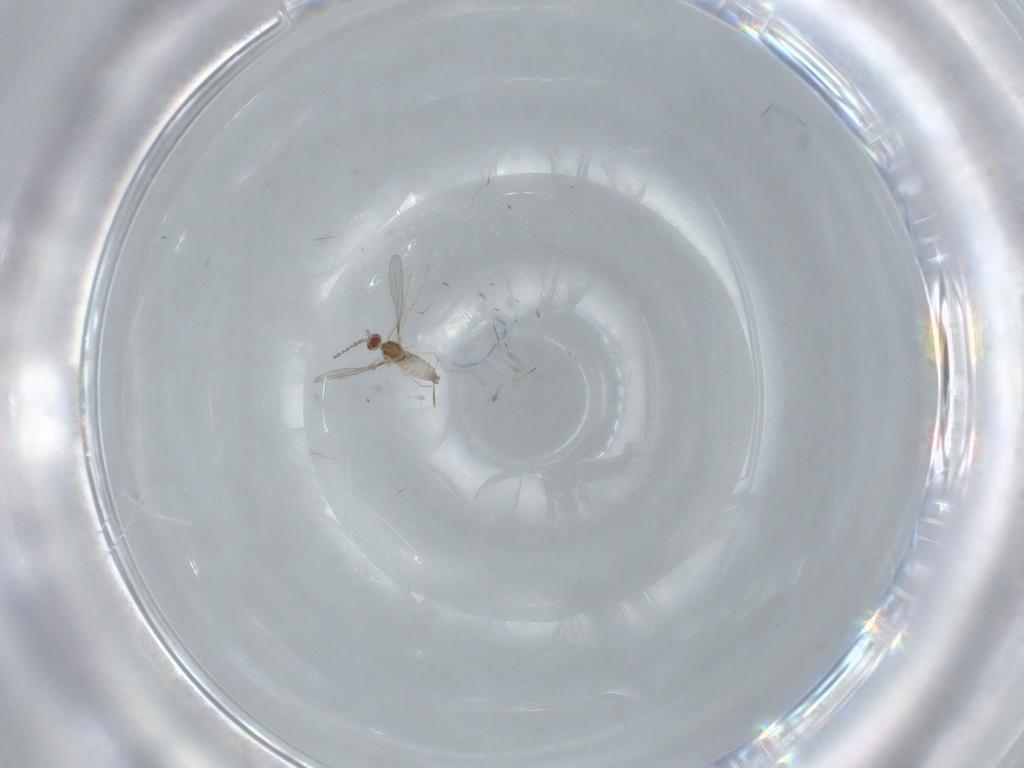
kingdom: Animalia
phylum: Arthropoda
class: Insecta
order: Diptera
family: Cecidomyiidae
